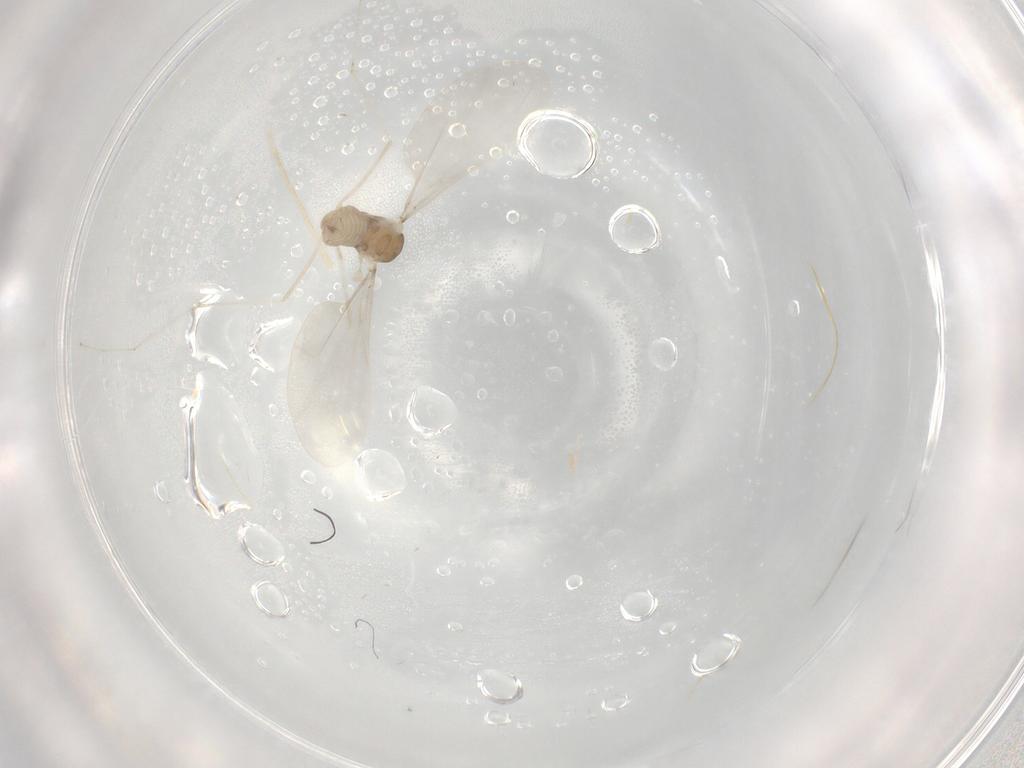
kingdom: Animalia
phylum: Arthropoda
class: Insecta
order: Diptera
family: Cecidomyiidae
